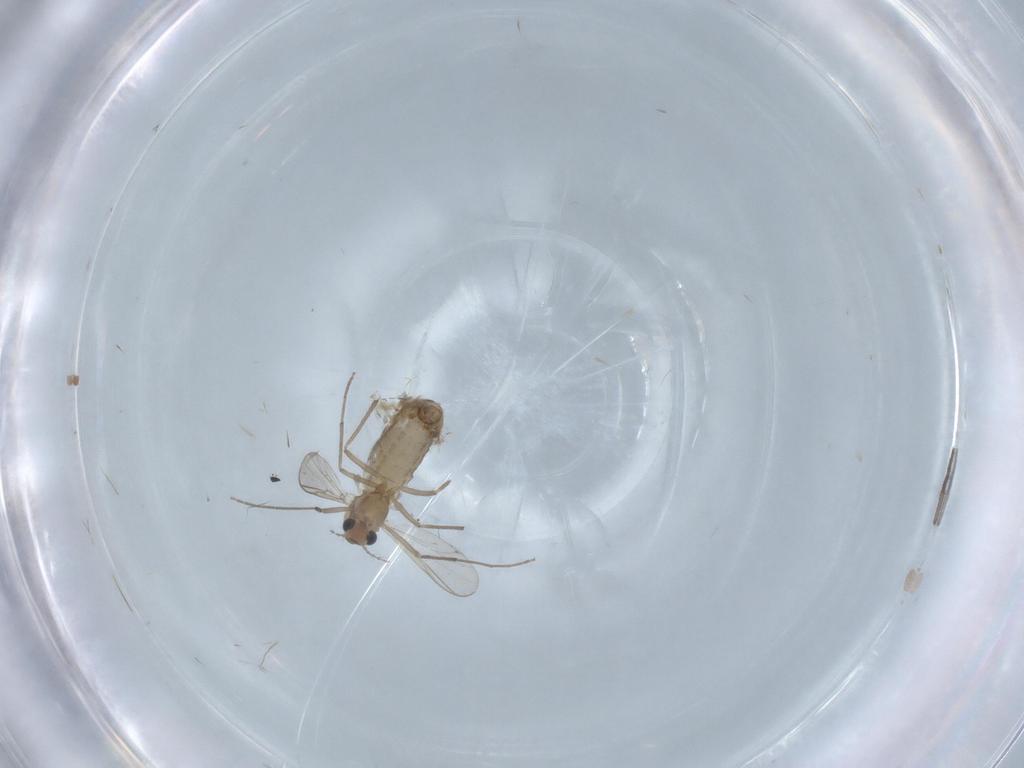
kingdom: Animalia
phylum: Arthropoda
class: Insecta
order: Diptera
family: Chironomidae
